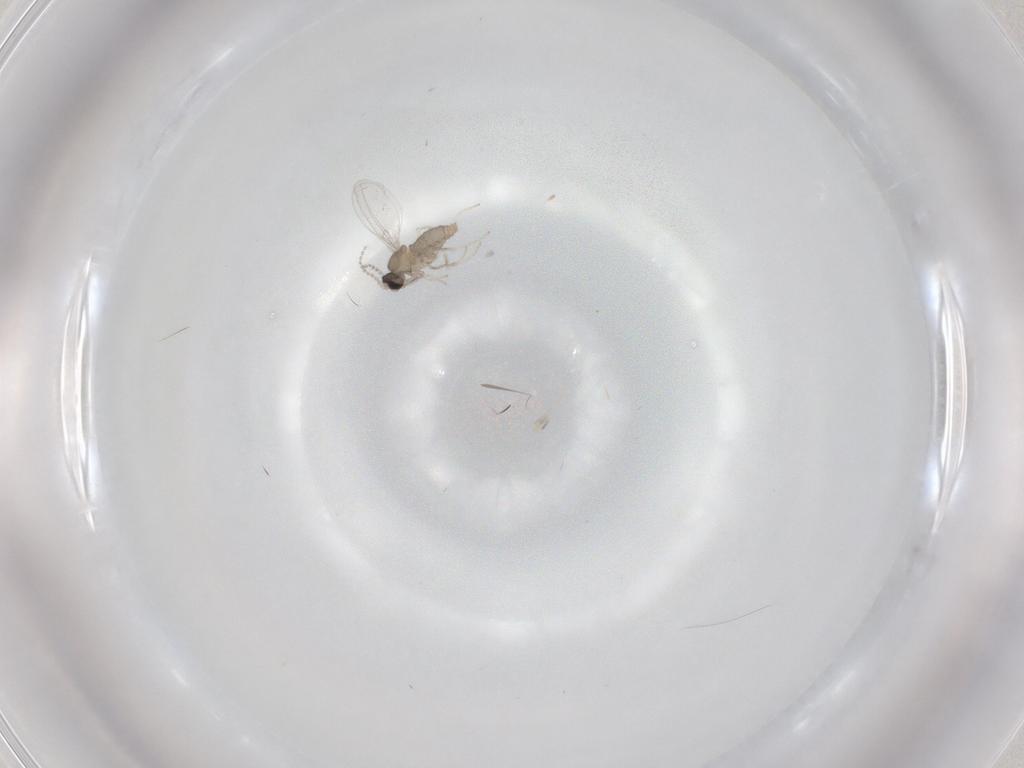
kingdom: Animalia
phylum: Arthropoda
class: Insecta
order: Diptera
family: Cecidomyiidae
